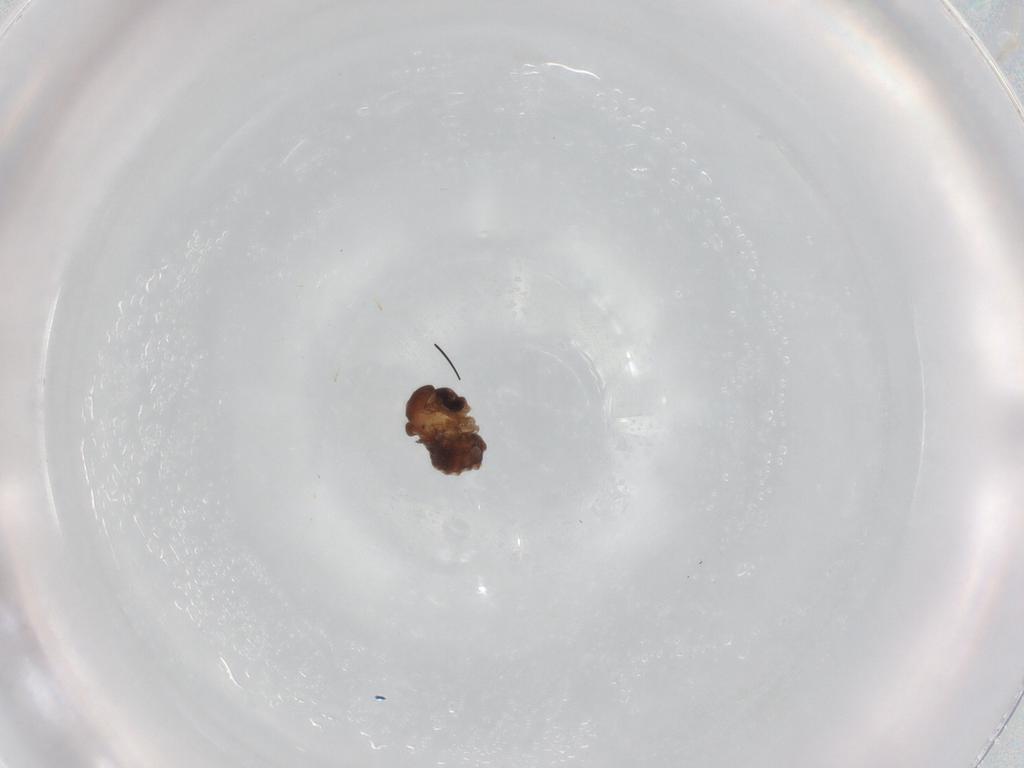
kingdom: Animalia
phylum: Arthropoda
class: Insecta
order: Diptera
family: Psychodidae
